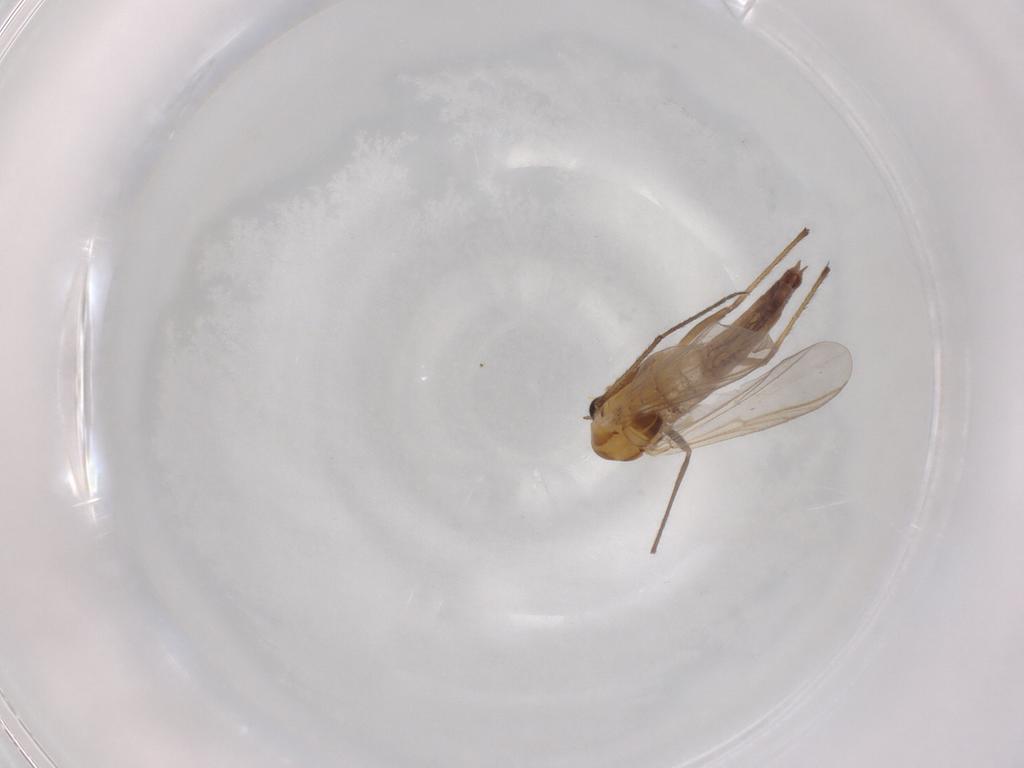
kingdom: Animalia
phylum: Arthropoda
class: Insecta
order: Diptera
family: Chironomidae
